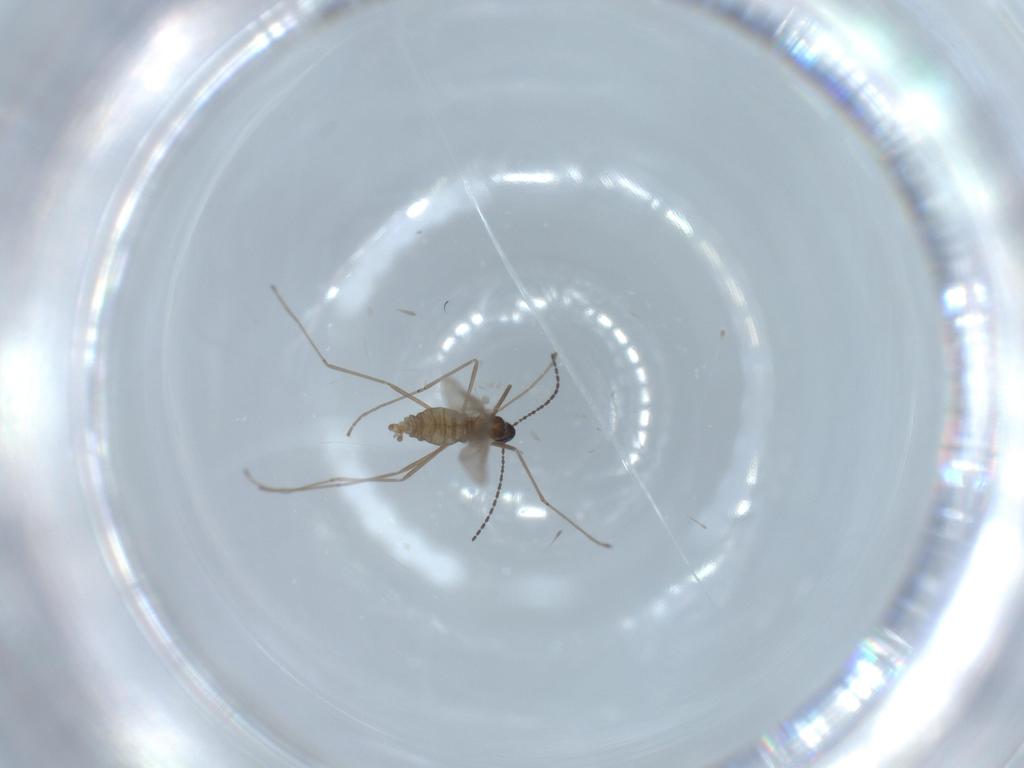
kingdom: Animalia
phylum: Arthropoda
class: Insecta
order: Diptera
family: Cecidomyiidae
